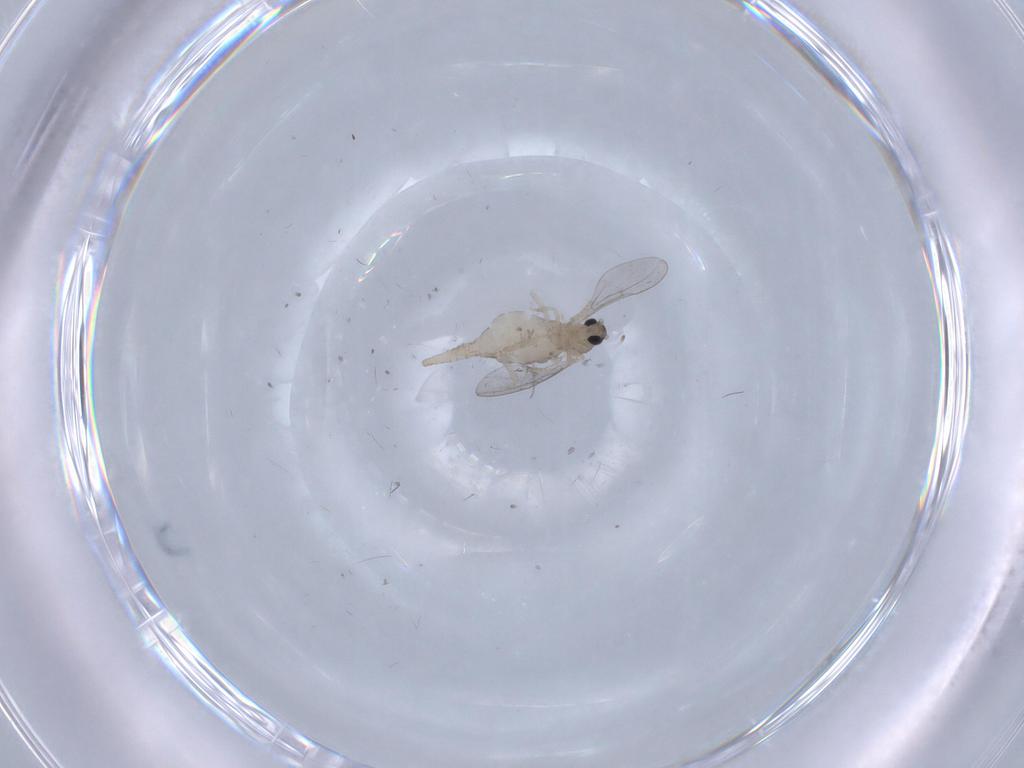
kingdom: Animalia
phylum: Arthropoda
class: Insecta
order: Diptera
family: Cecidomyiidae
